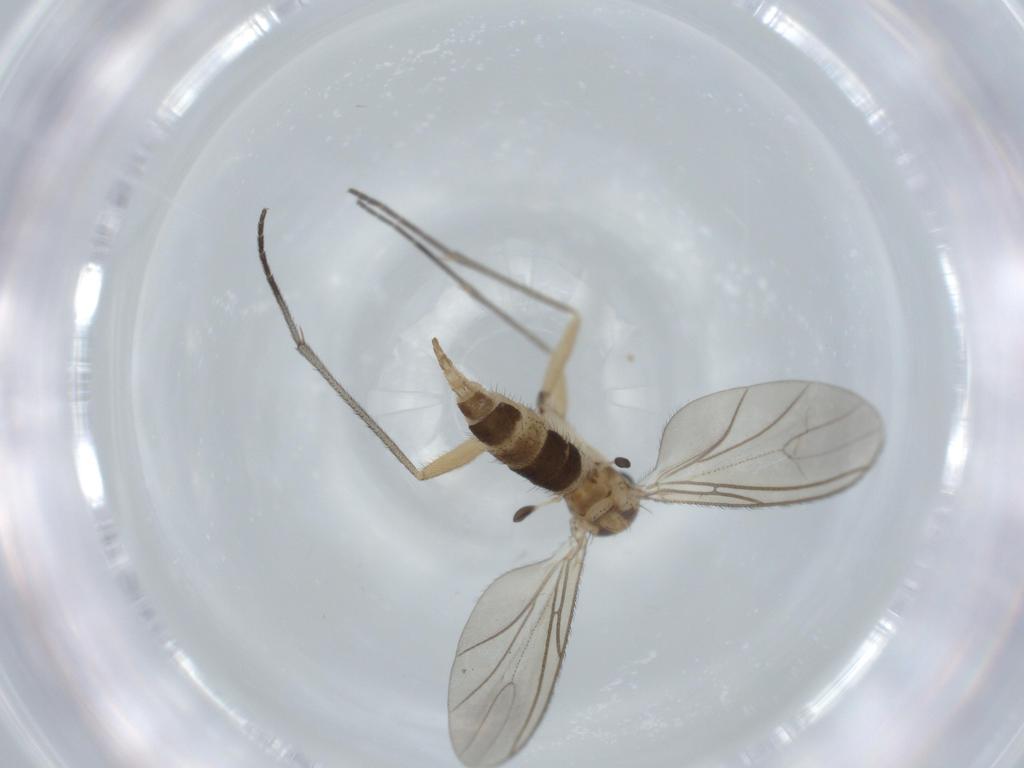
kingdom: Animalia
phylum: Arthropoda
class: Insecta
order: Diptera
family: Sciaridae
